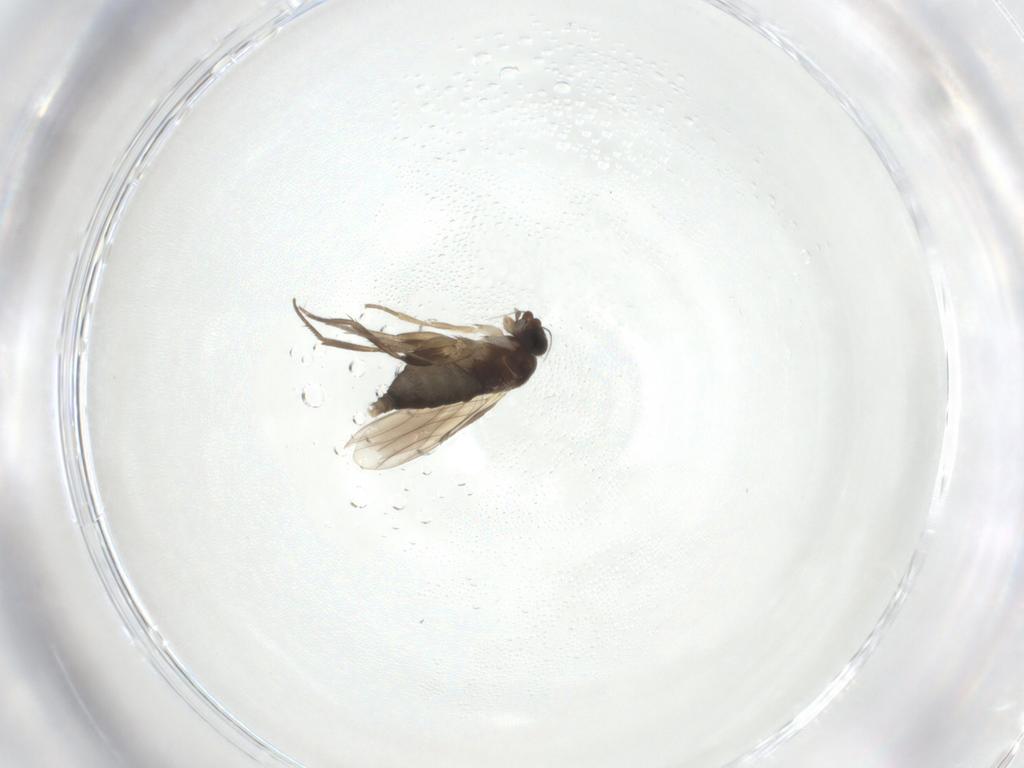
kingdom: Animalia
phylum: Arthropoda
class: Insecta
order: Diptera
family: Phoridae
